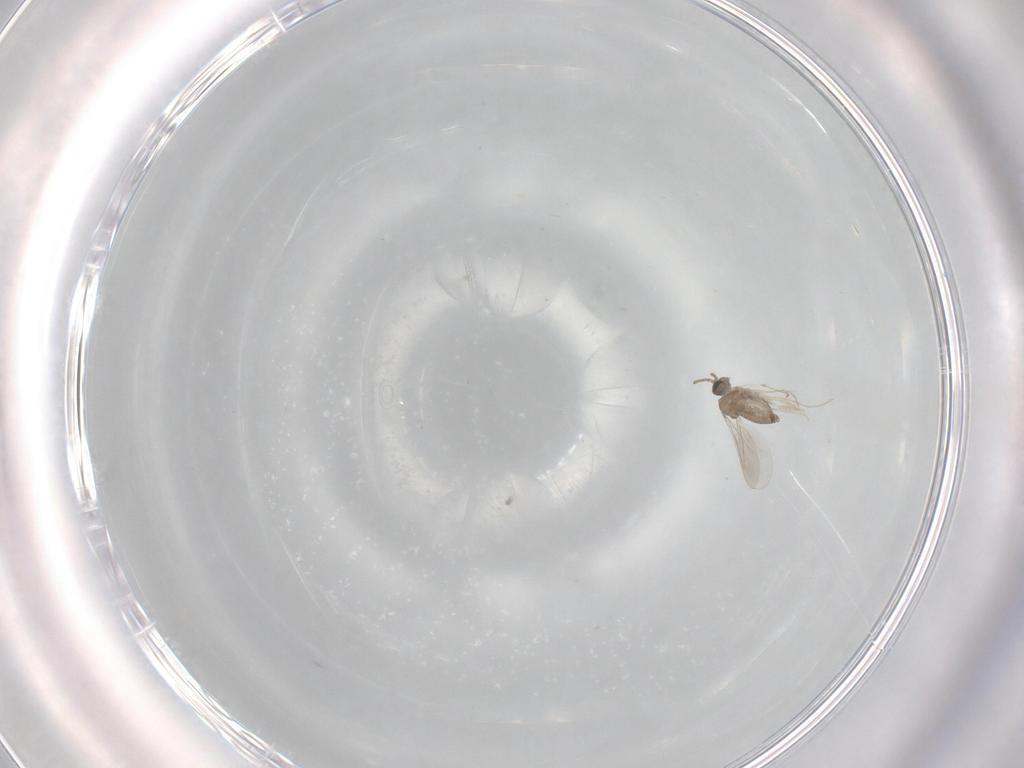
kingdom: Animalia
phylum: Arthropoda
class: Insecta
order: Diptera
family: Cecidomyiidae
